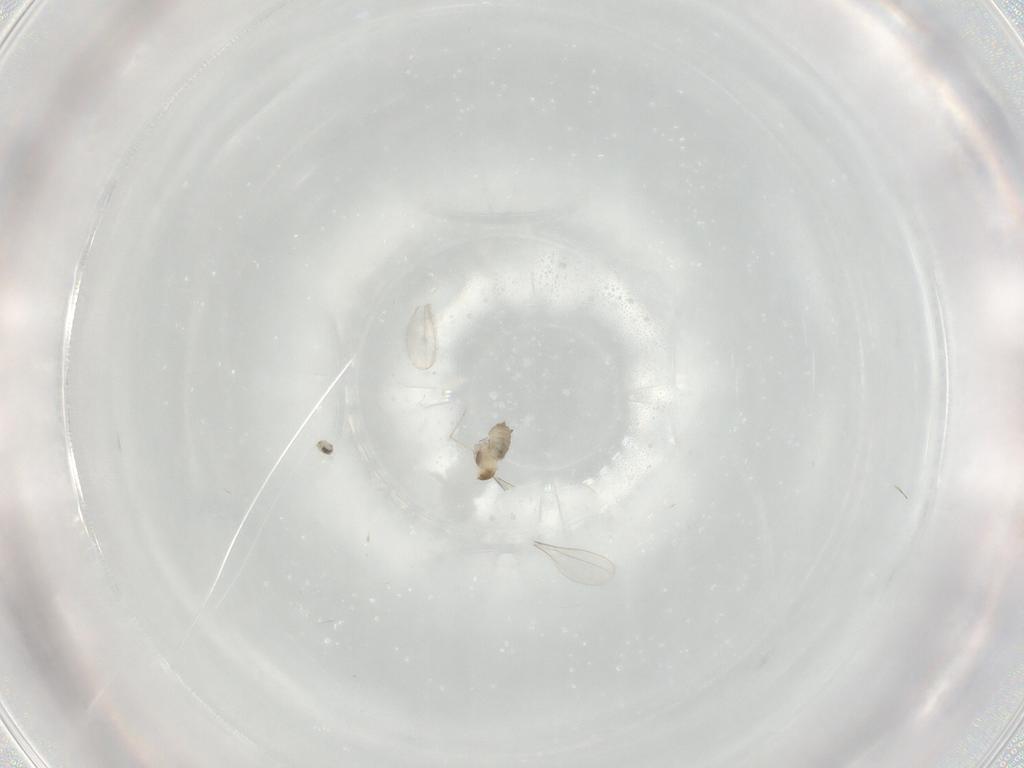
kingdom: Animalia
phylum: Arthropoda
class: Insecta
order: Diptera
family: Cecidomyiidae
